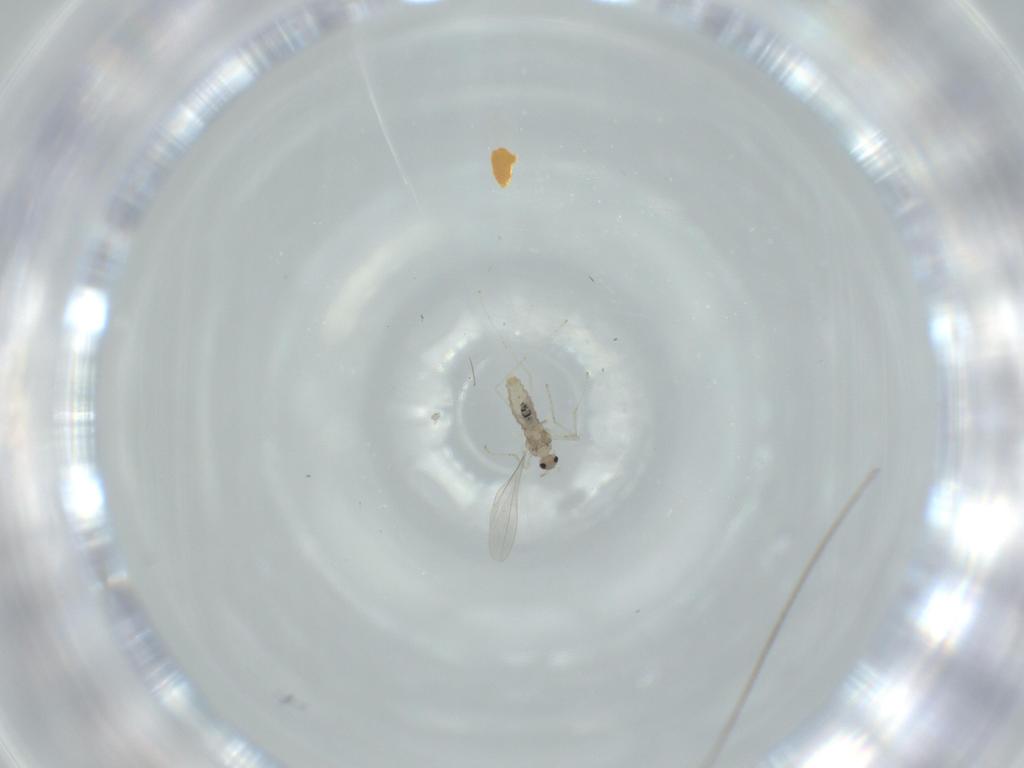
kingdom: Animalia
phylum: Arthropoda
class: Insecta
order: Diptera
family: Cecidomyiidae
